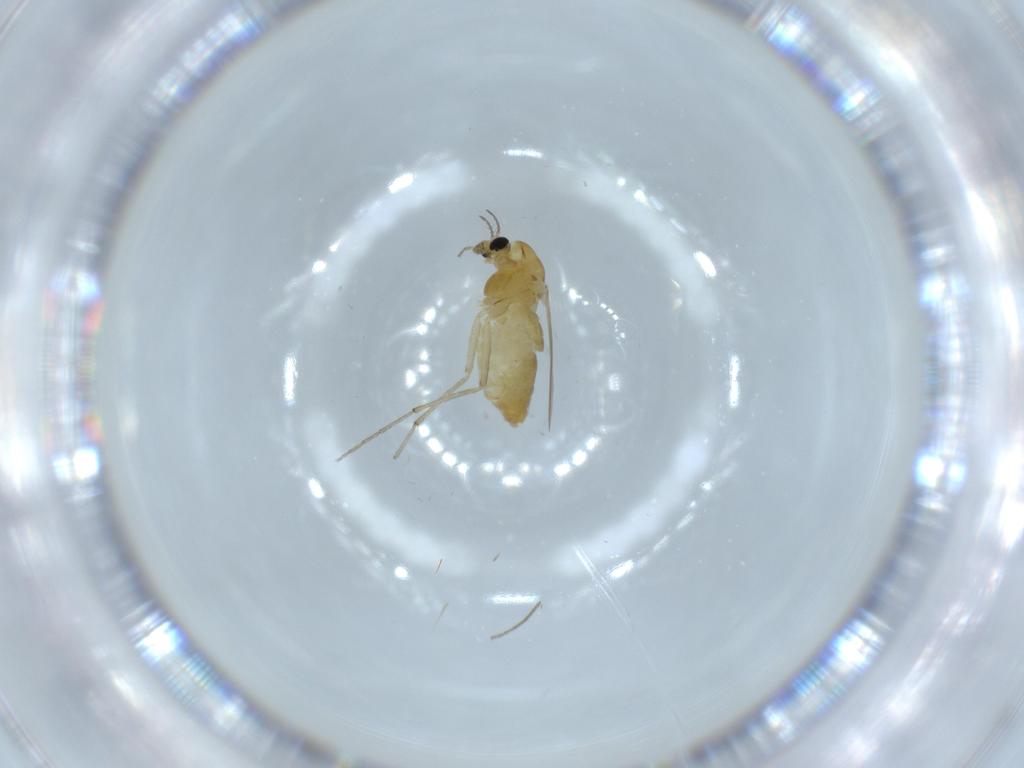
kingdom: Animalia
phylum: Arthropoda
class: Insecta
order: Diptera
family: Chironomidae
